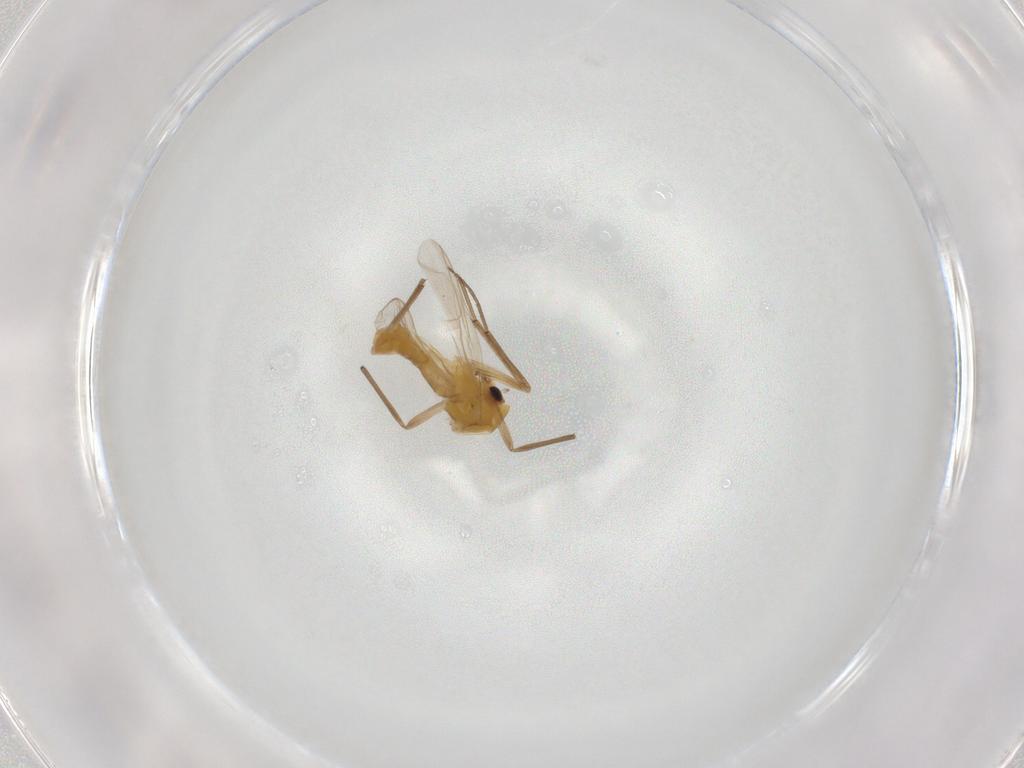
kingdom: Animalia
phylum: Arthropoda
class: Insecta
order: Diptera
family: Chironomidae
